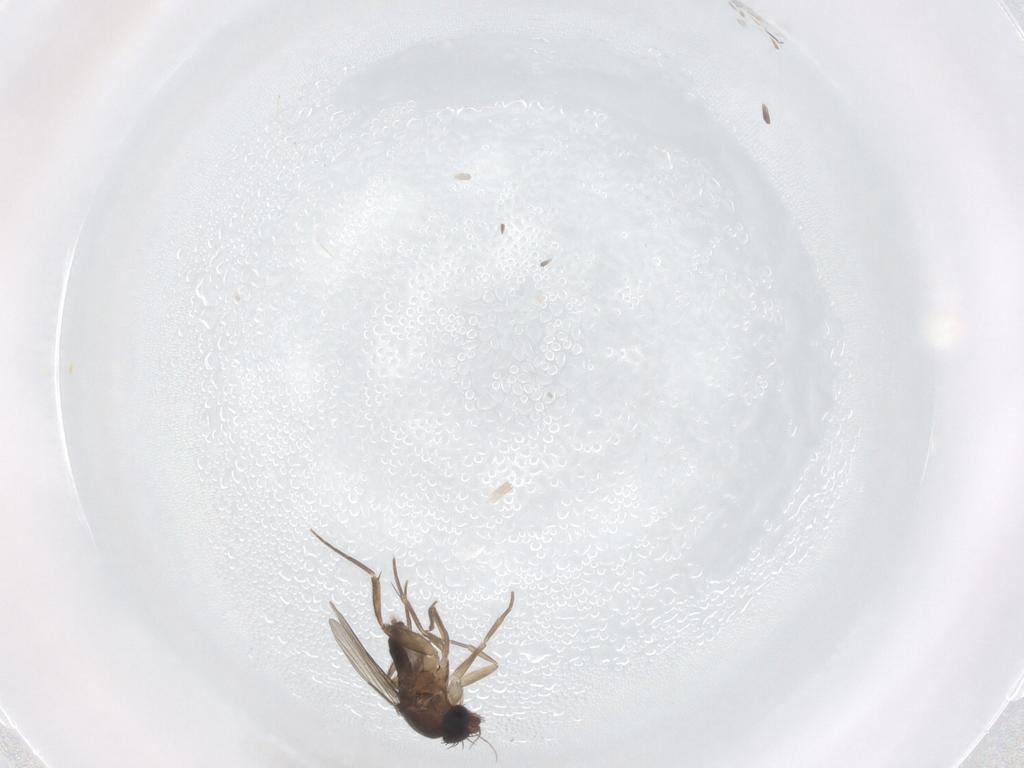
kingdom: Animalia
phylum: Arthropoda
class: Insecta
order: Diptera
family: Phoridae
